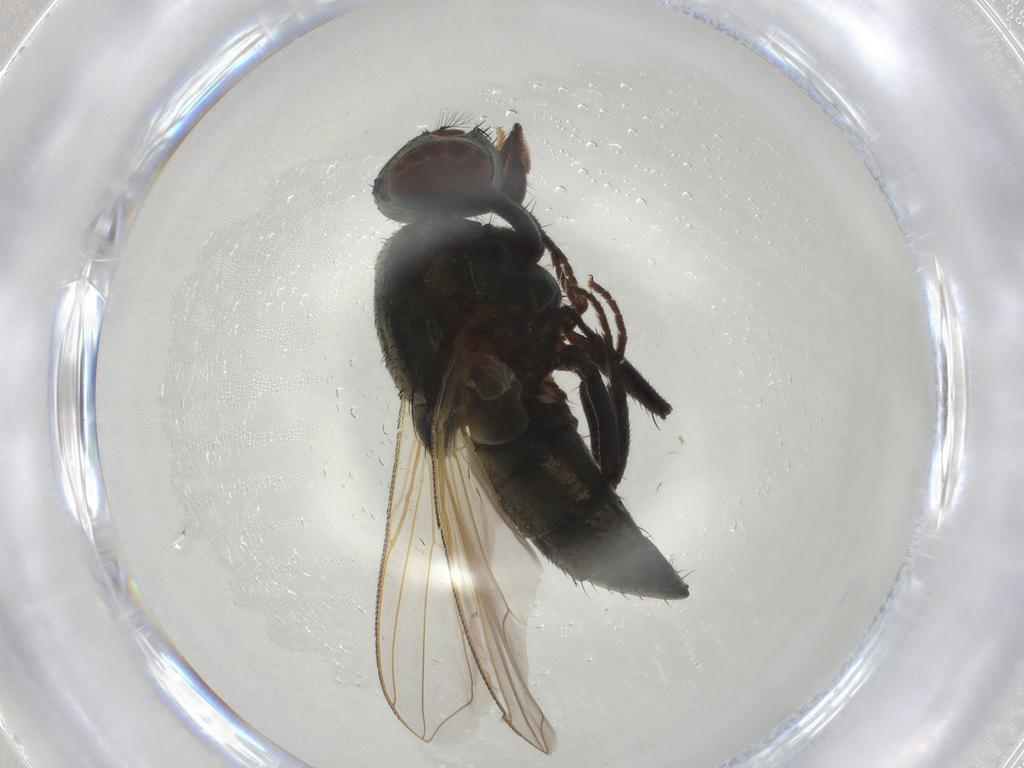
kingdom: Animalia
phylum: Arthropoda
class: Insecta
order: Diptera
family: Muscidae
